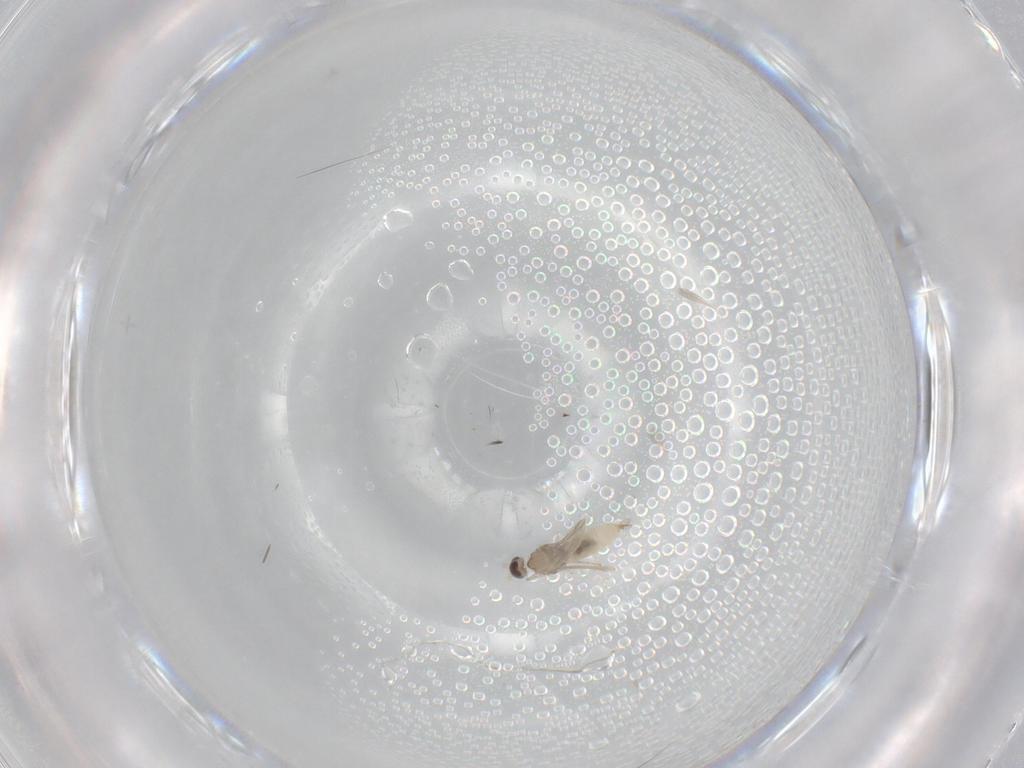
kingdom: Animalia
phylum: Arthropoda
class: Insecta
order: Diptera
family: Cecidomyiidae
